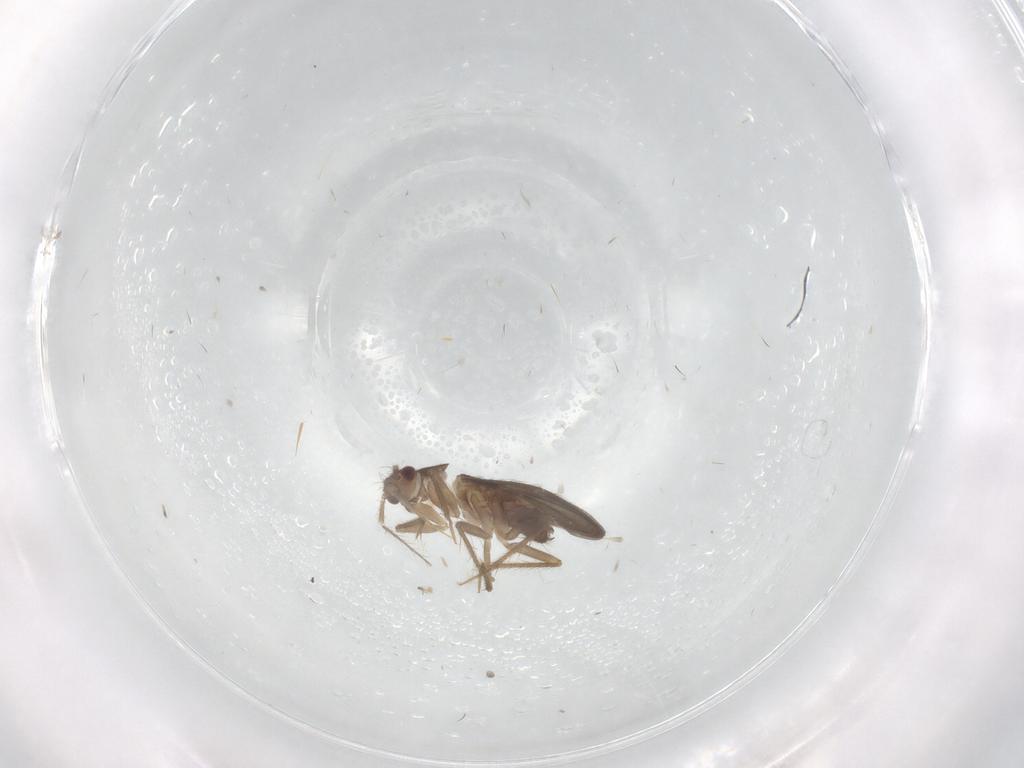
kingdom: Animalia
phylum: Arthropoda
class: Insecta
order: Hemiptera
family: Ceratocombidae
